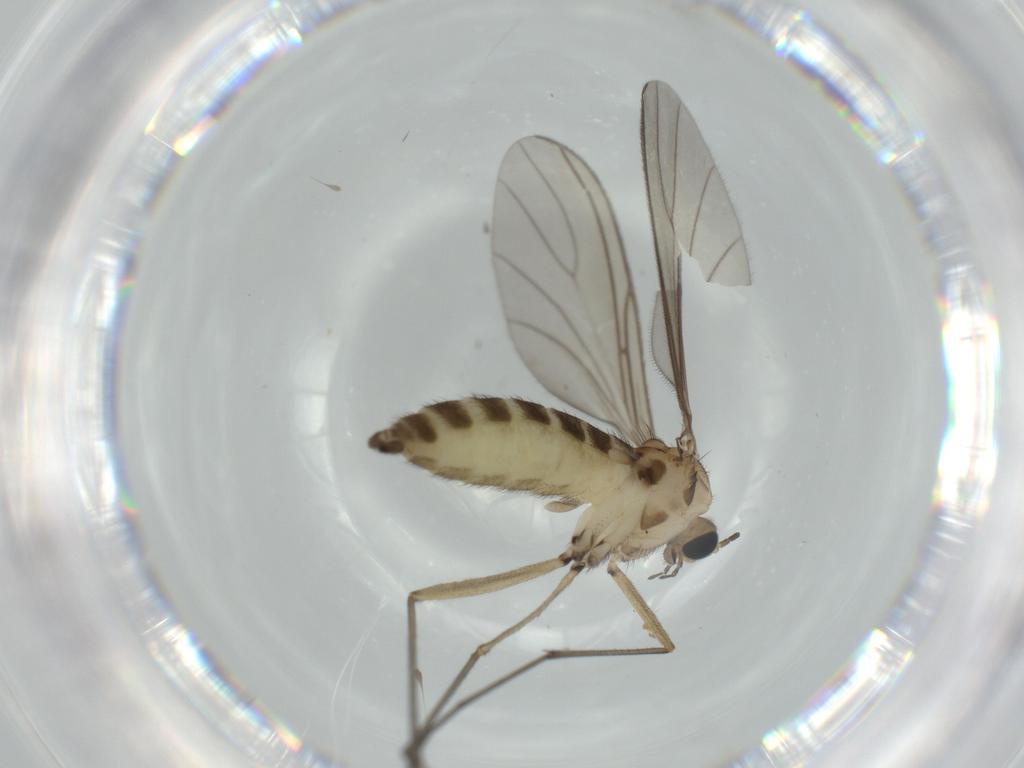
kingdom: Animalia
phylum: Arthropoda
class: Insecta
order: Diptera
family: Sciaridae
